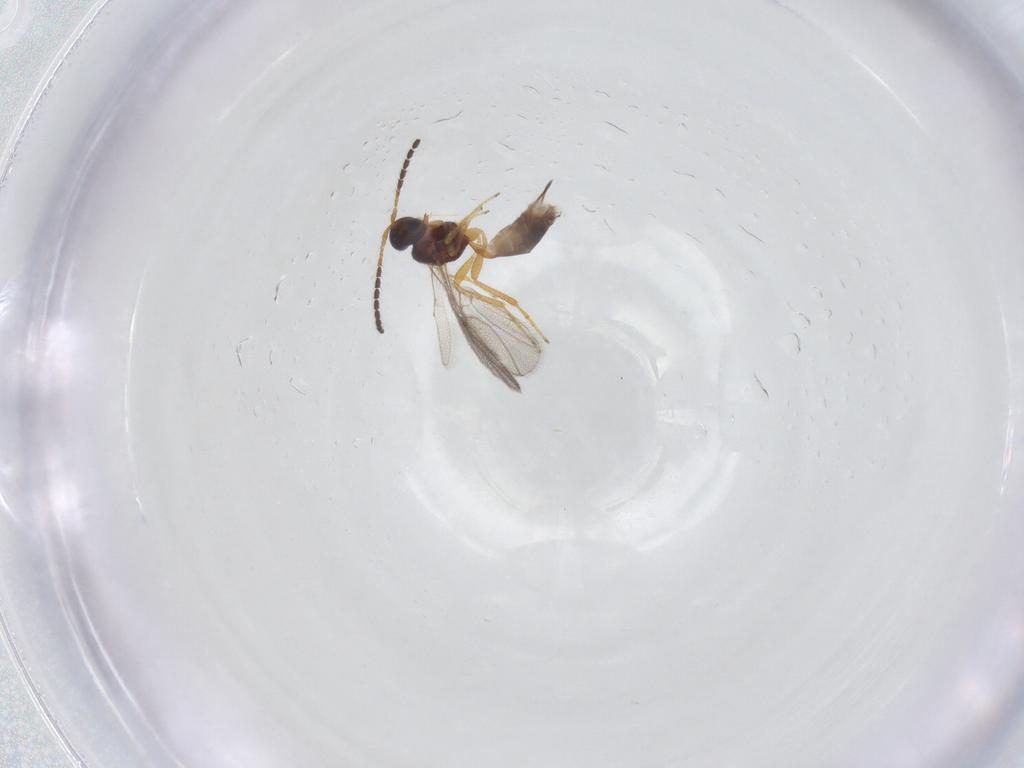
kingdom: Animalia
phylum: Arthropoda
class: Insecta
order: Hymenoptera
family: Braconidae
